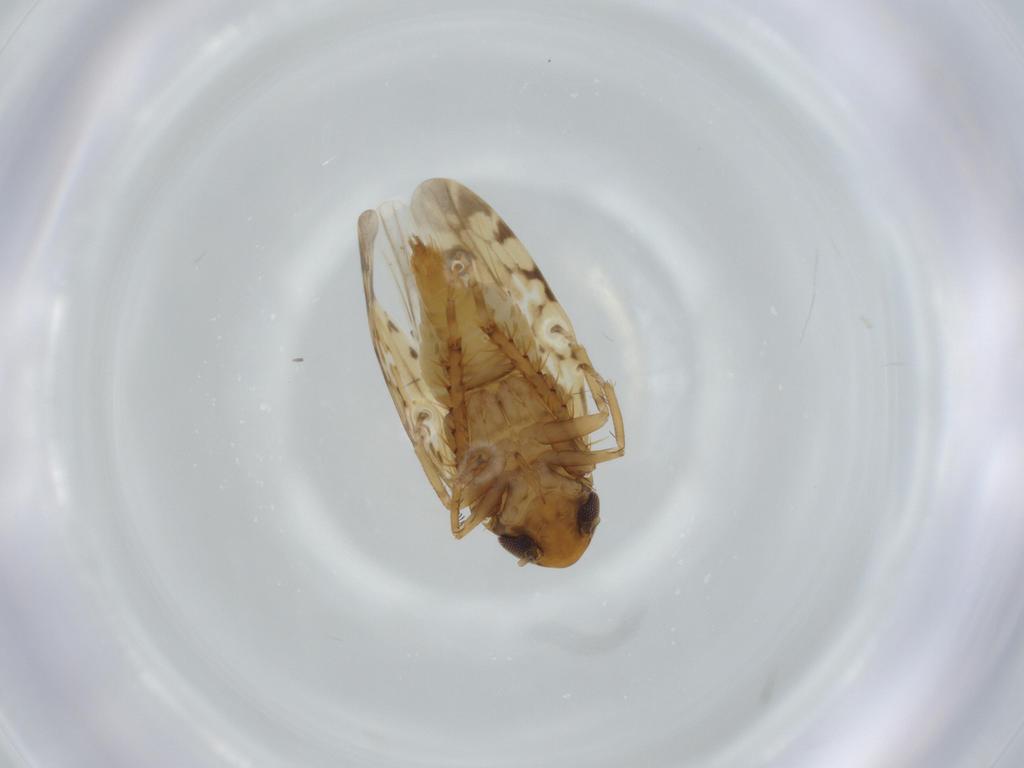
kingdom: Animalia
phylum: Arthropoda
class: Insecta
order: Hemiptera
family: Cicadellidae
